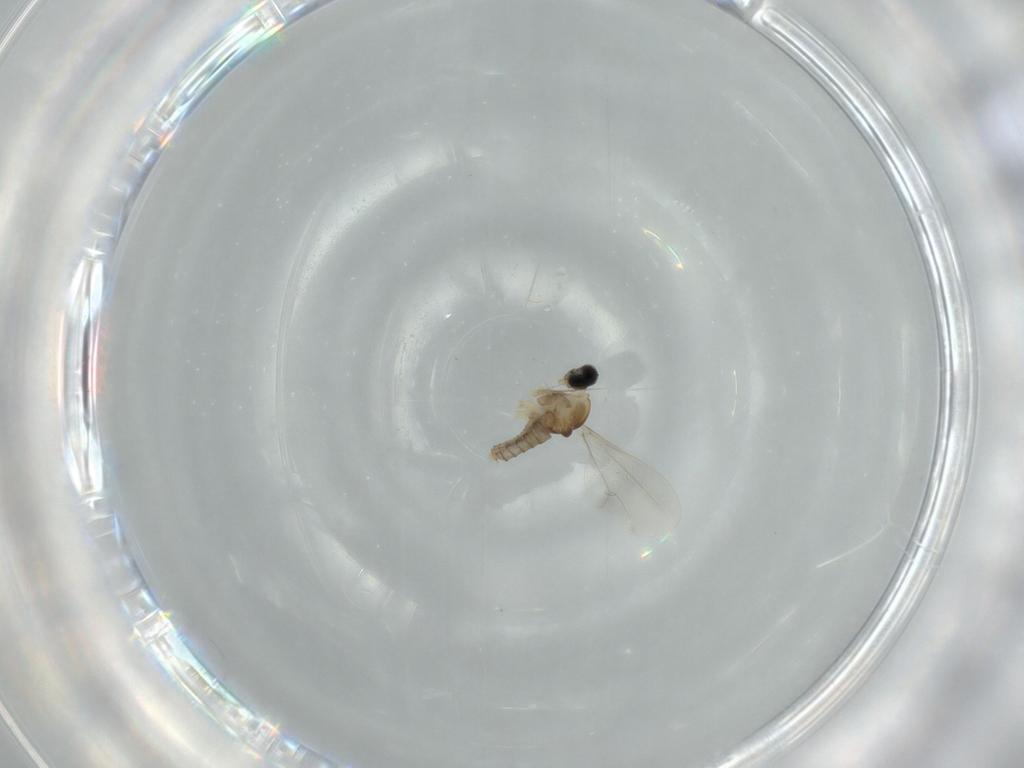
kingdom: Animalia
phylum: Arthropoda
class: Insecta
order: Diptera
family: Cecidomyiidae
